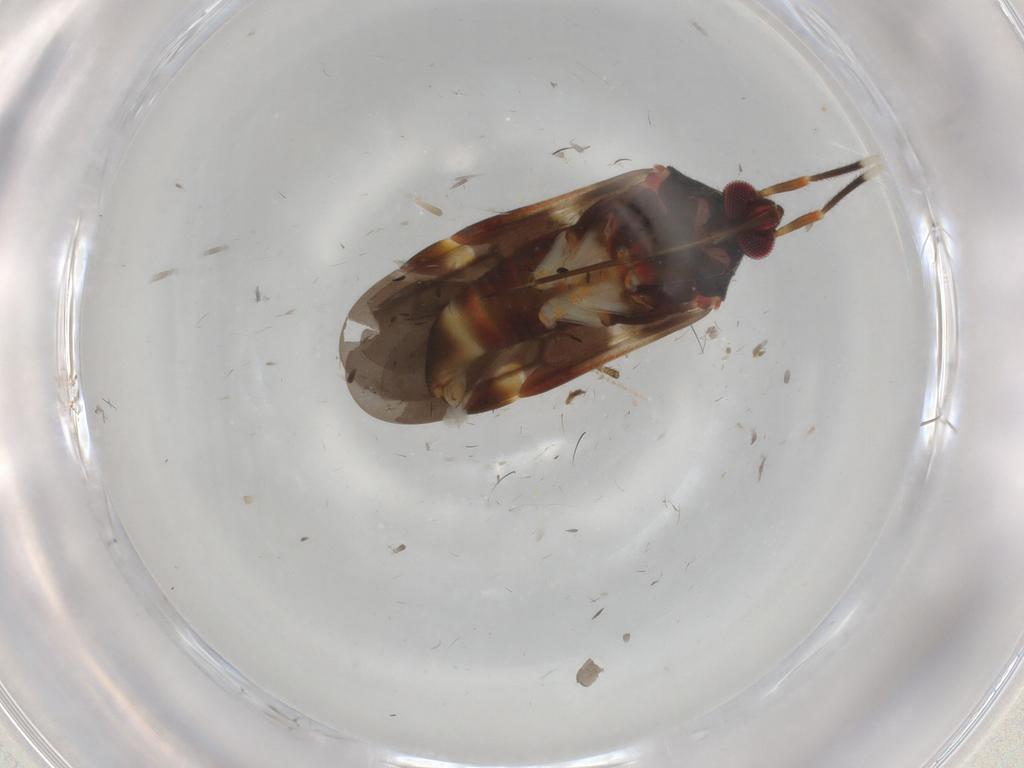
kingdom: Animalia
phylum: Arthropoda
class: Insecta
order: Hemiptera
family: Miridae
